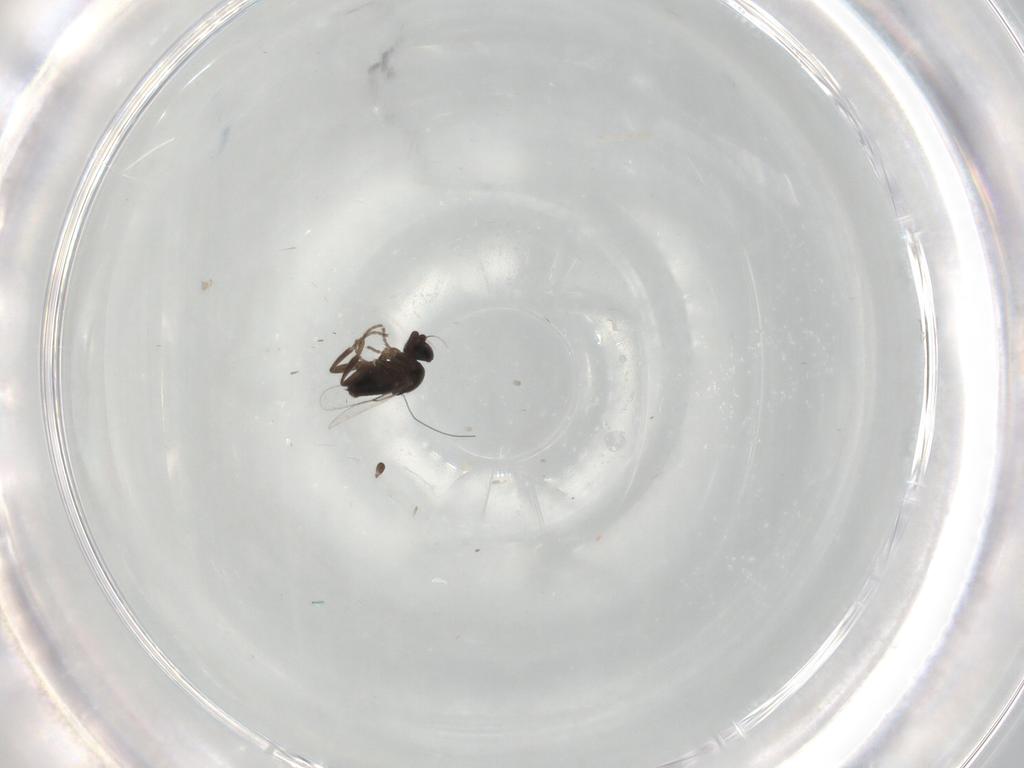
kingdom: Animalia
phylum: Arthropoda
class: Insecta
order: Diptera
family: Phoridae
